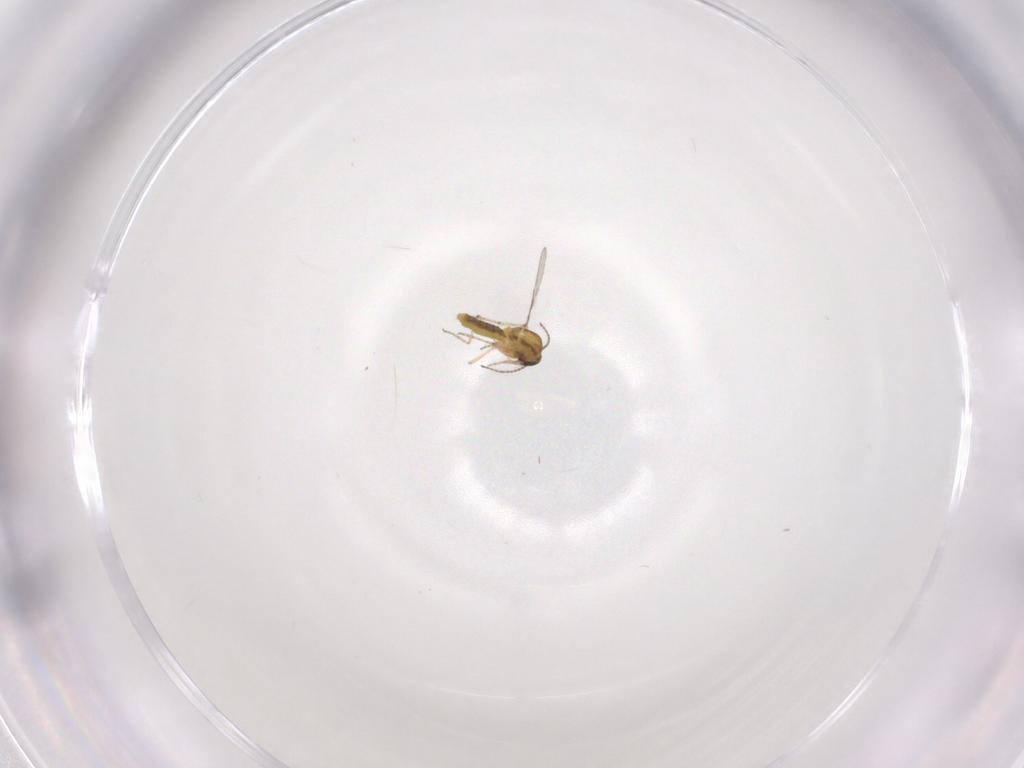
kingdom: Animalia
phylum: Arthropoda
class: Insecta
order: Diptera
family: Ceratopogonidae
